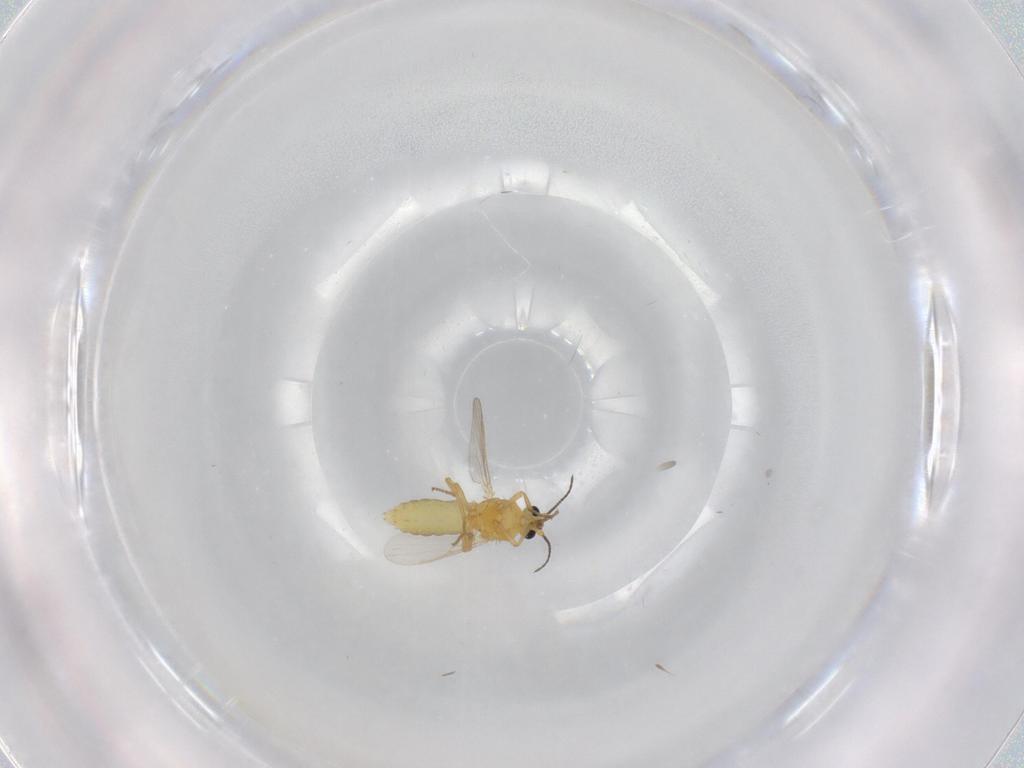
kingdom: Animalia
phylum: Arthropoda
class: Insecta
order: Diptera
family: Ceratopogonidae
